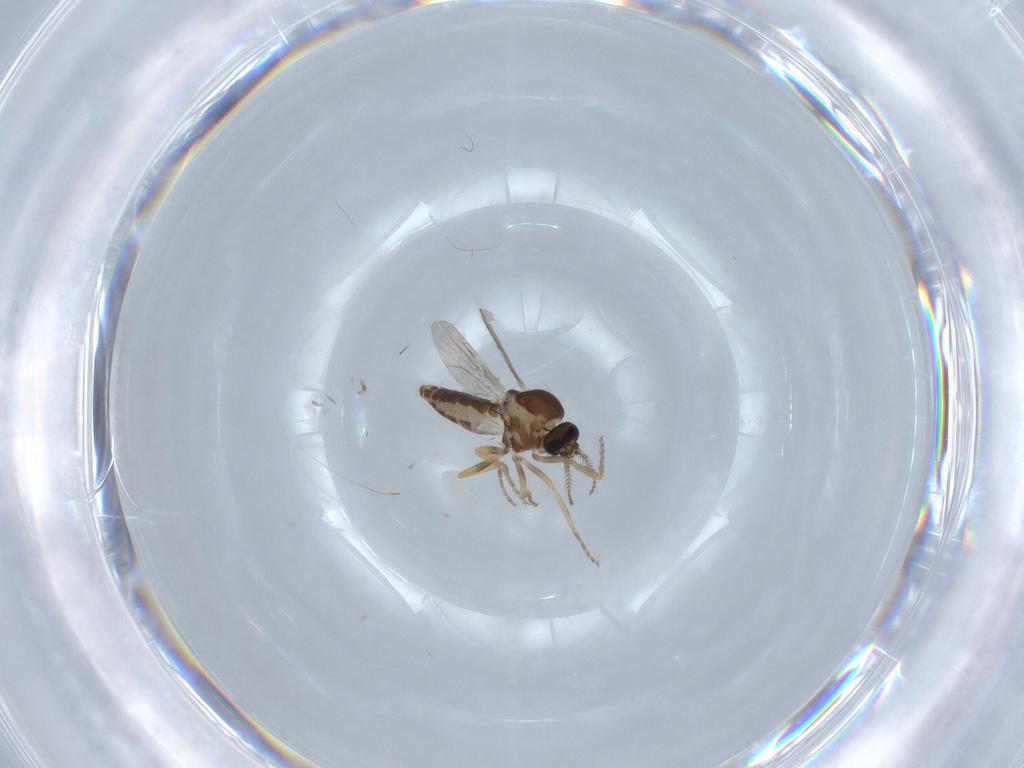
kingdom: Animalia
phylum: Arthropoda
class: Insecta
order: Diptera
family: Ceratopogonidae
